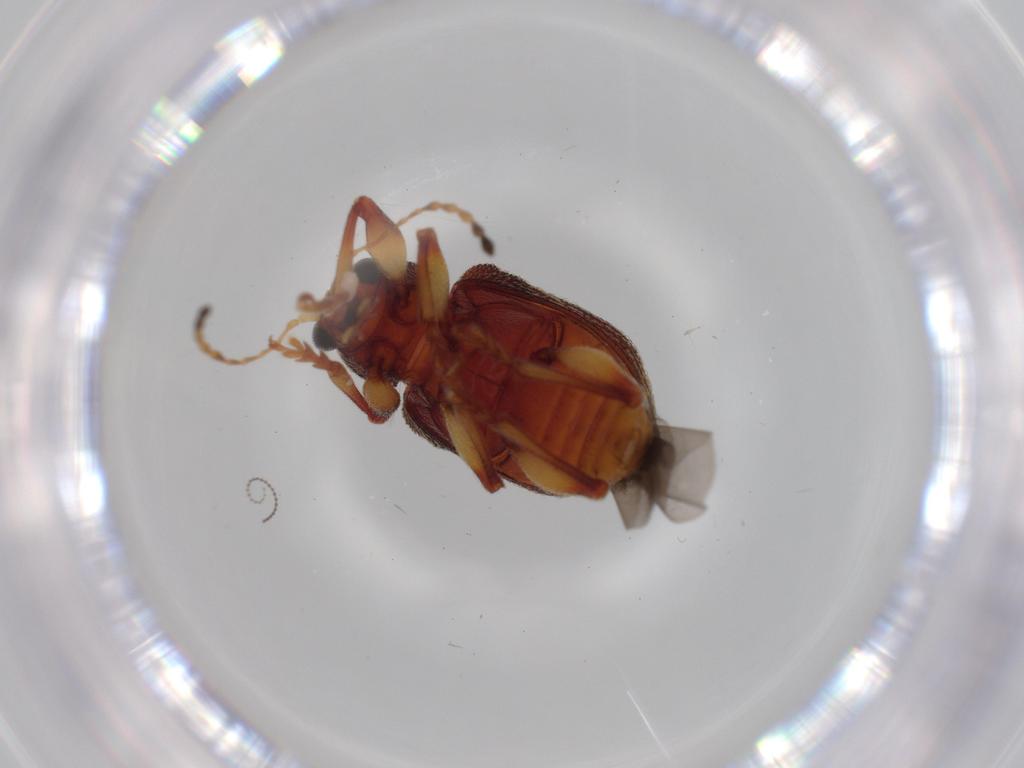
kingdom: Animalia
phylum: Arthropoda
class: Insecta
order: Coleoptera
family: Chrysomelidae
